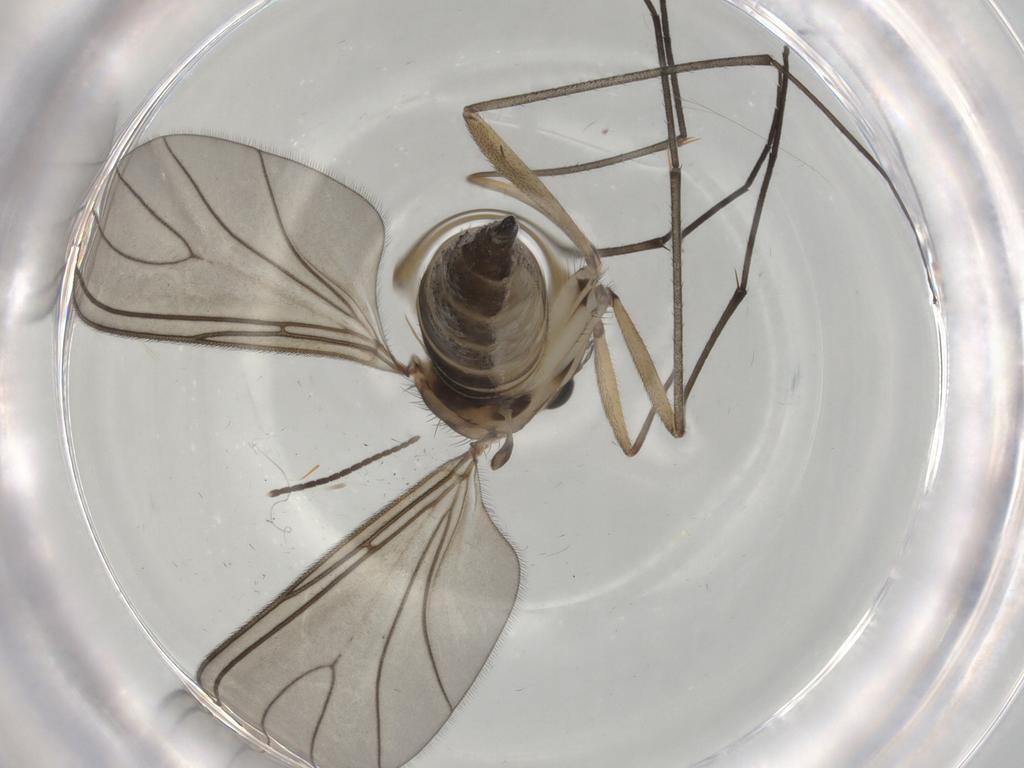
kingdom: Animalia
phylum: Arthropoda
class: Insecta
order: Diptera
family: Sciaridae
